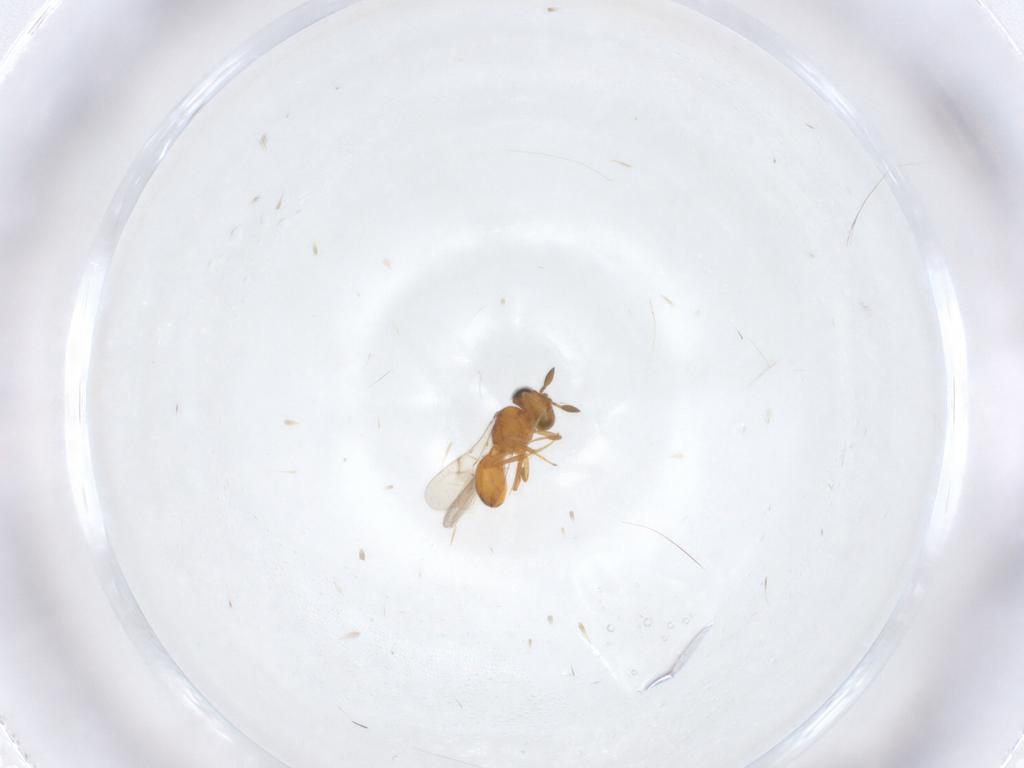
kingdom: Animalia
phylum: Arthropoda
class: Insecta
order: Hymenoptera
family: Scelionidae
